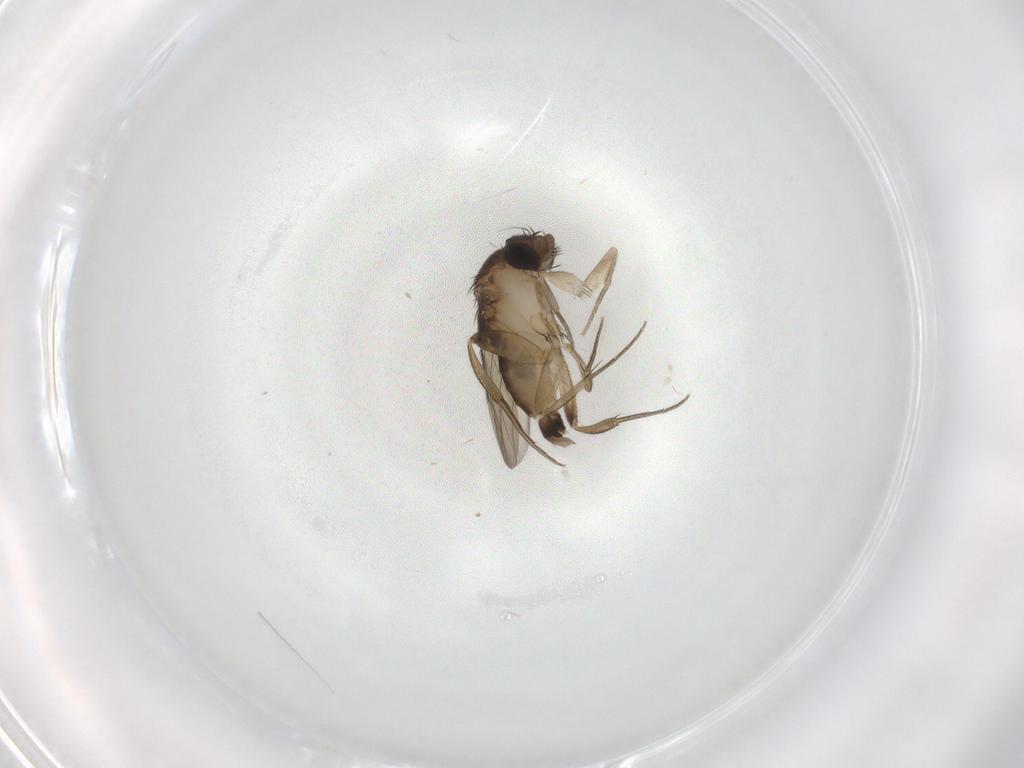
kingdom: Animalia
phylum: Arthropoda
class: Insecta
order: Diptera
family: Phoridae
